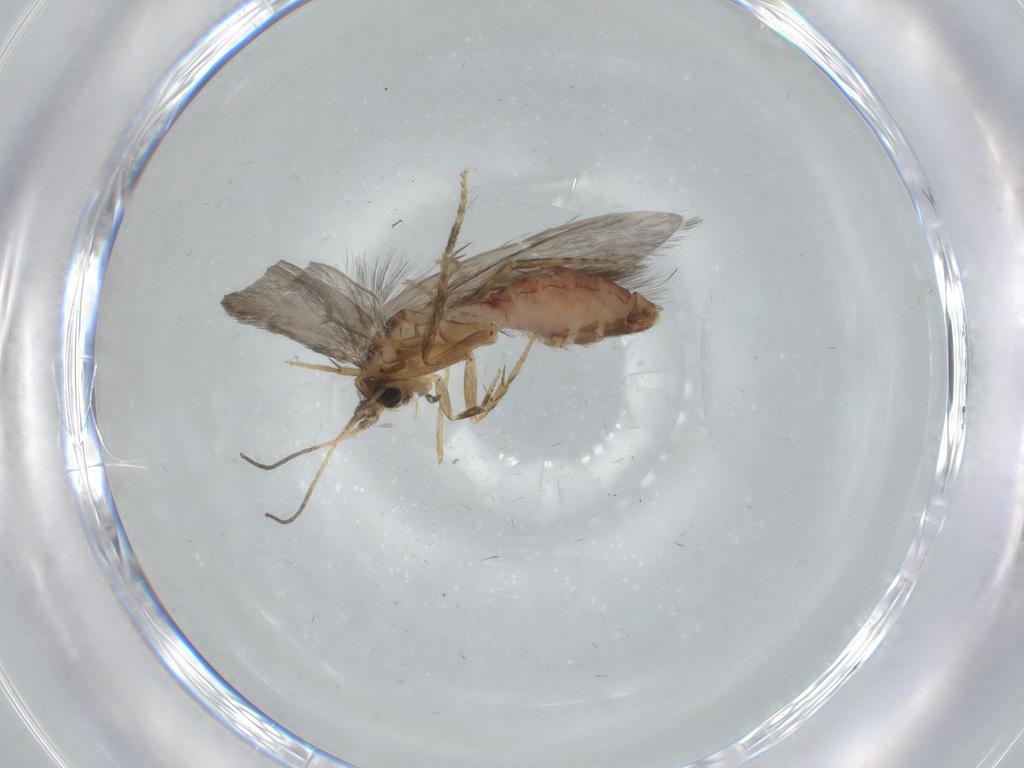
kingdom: Animalia
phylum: Arthropoda
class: Insecta
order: Trichoptera
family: Glossosomatidae
